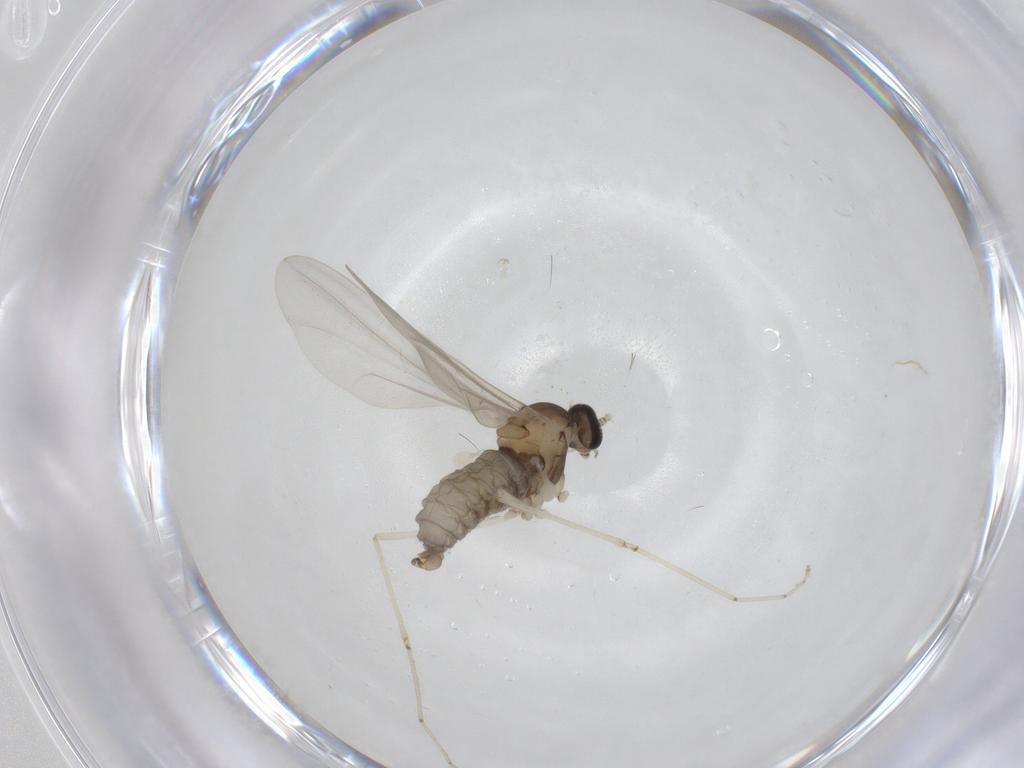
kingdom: Animalia
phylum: Arthropoda
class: Insecta
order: Diptera
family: Cecidomyiidae
